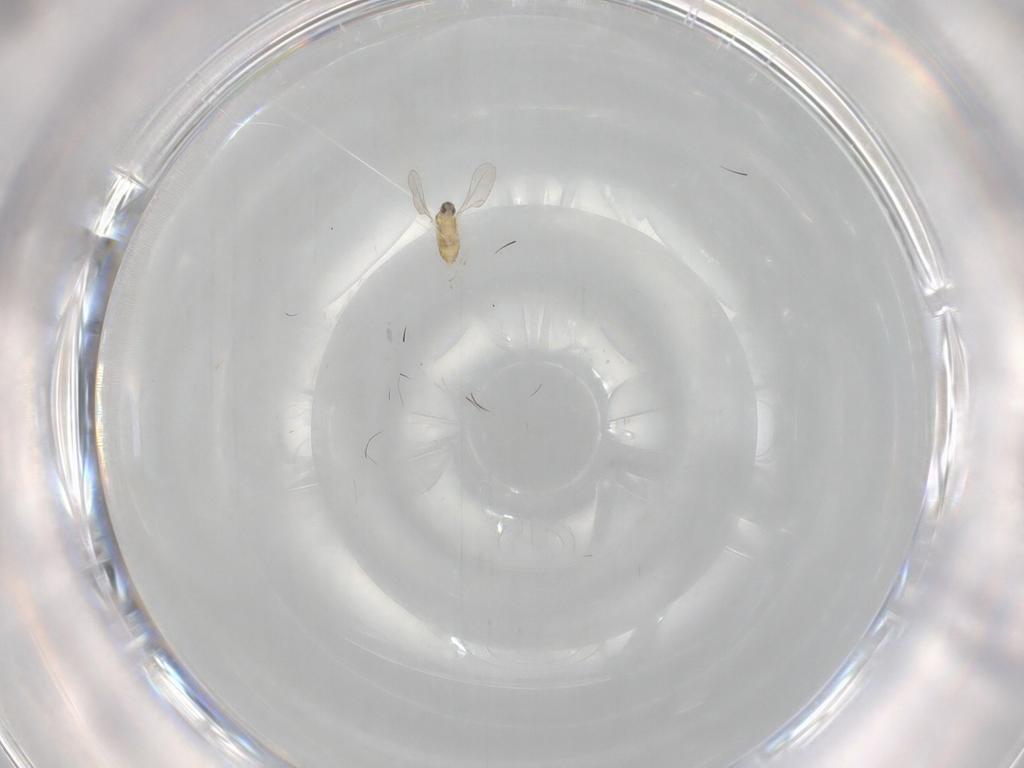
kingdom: Animalia
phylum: Arthropoda
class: Insecta
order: Diptera
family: Cecidomyiidae
